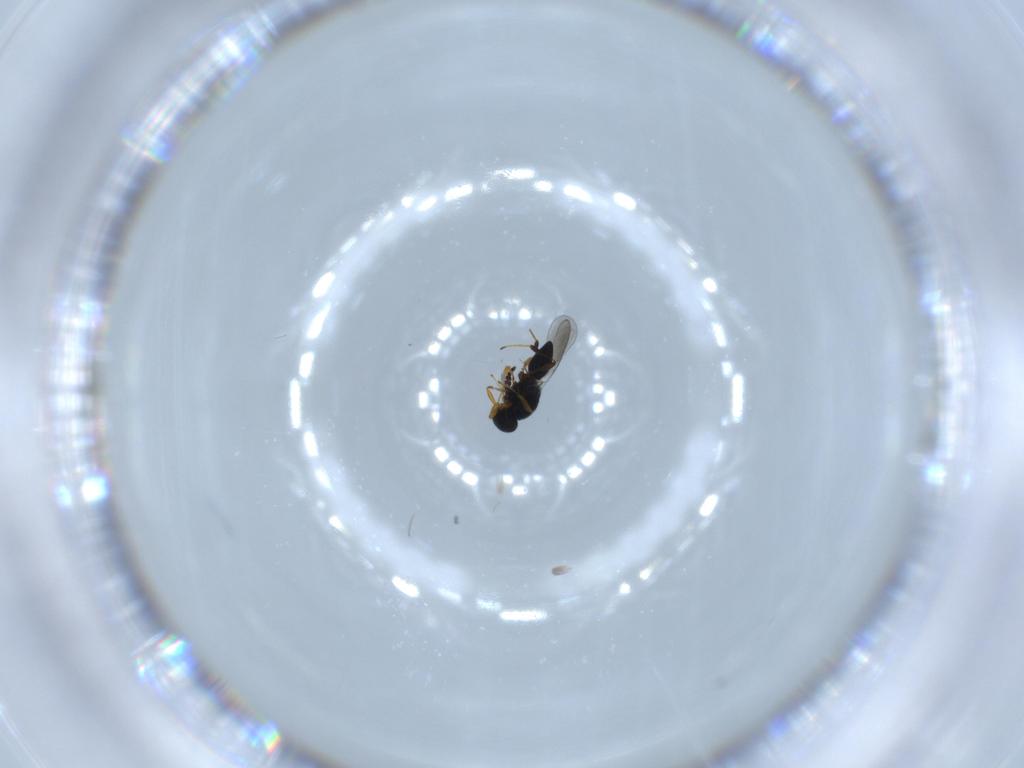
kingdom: Animalia
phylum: Arthropoda
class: Insecta
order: Hymenoptera
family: Platygastridae
